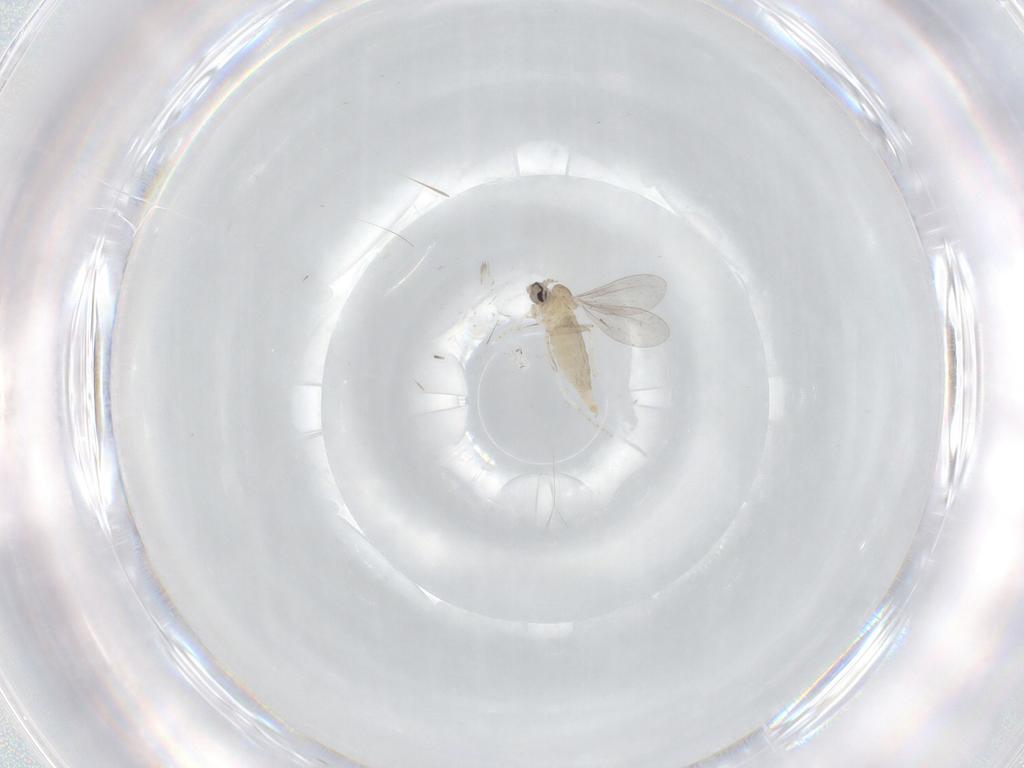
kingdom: Animalia
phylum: Arthropoda
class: Insecta
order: Diptera
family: Cecidomyiidae
